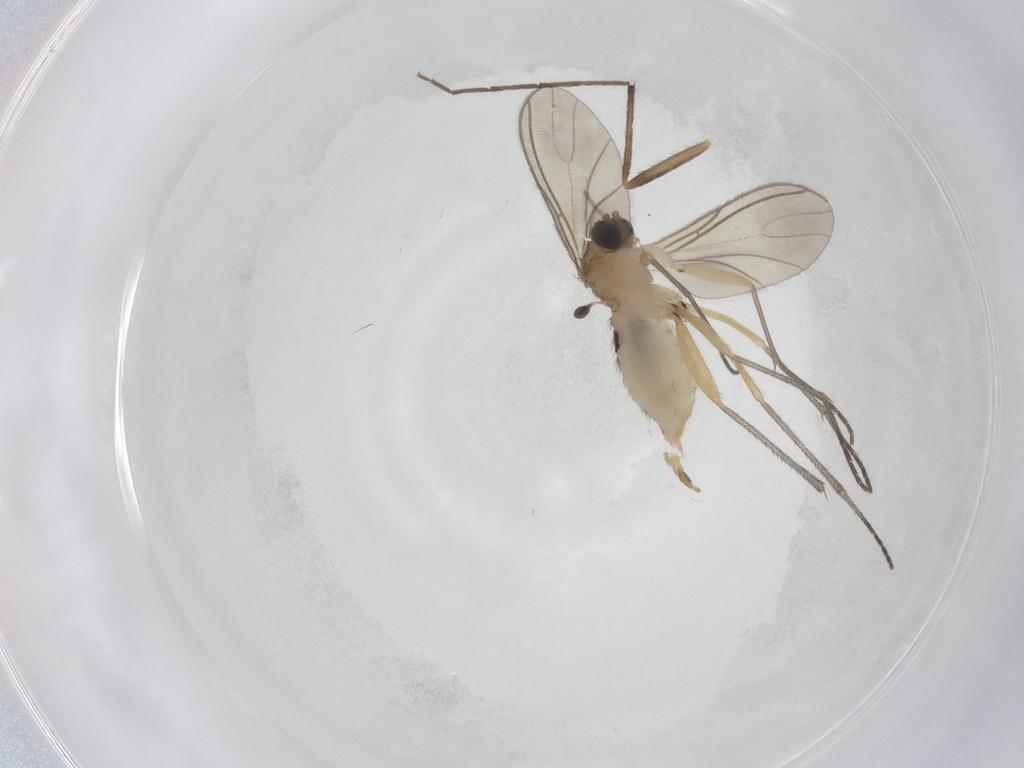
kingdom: Animalia
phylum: Arthropoda
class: Insecta
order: Diptera
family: Sciaridae
